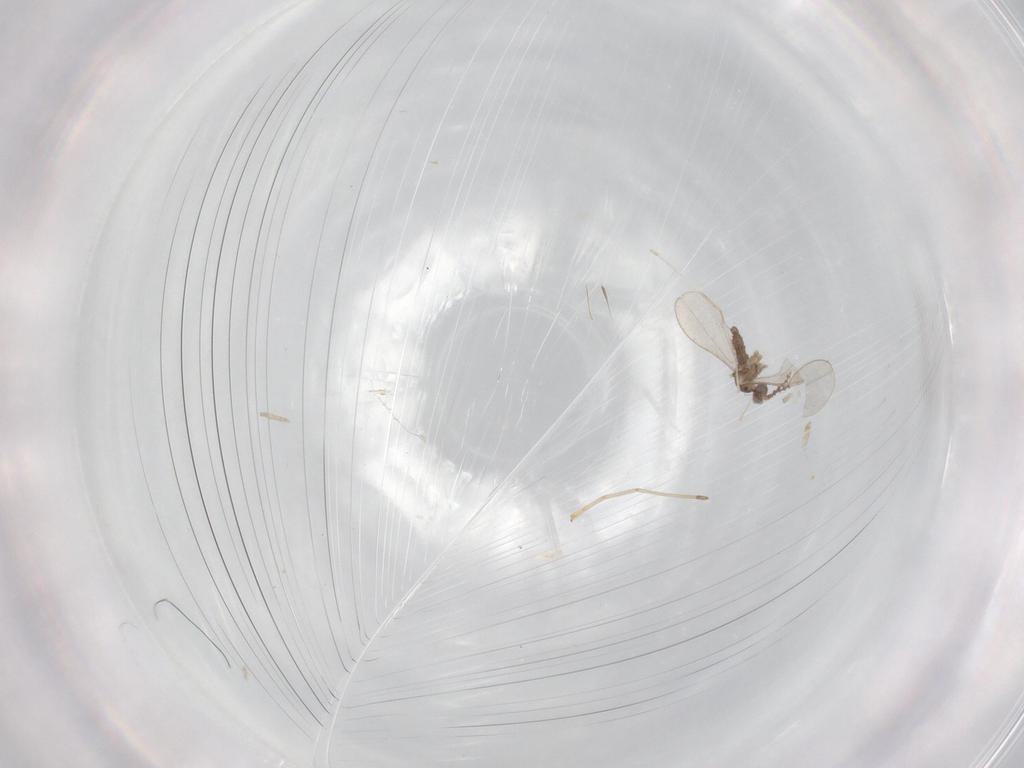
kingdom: Animalia
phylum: Arthropoda
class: Insecta
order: Diptera
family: Cecidomyiidae
